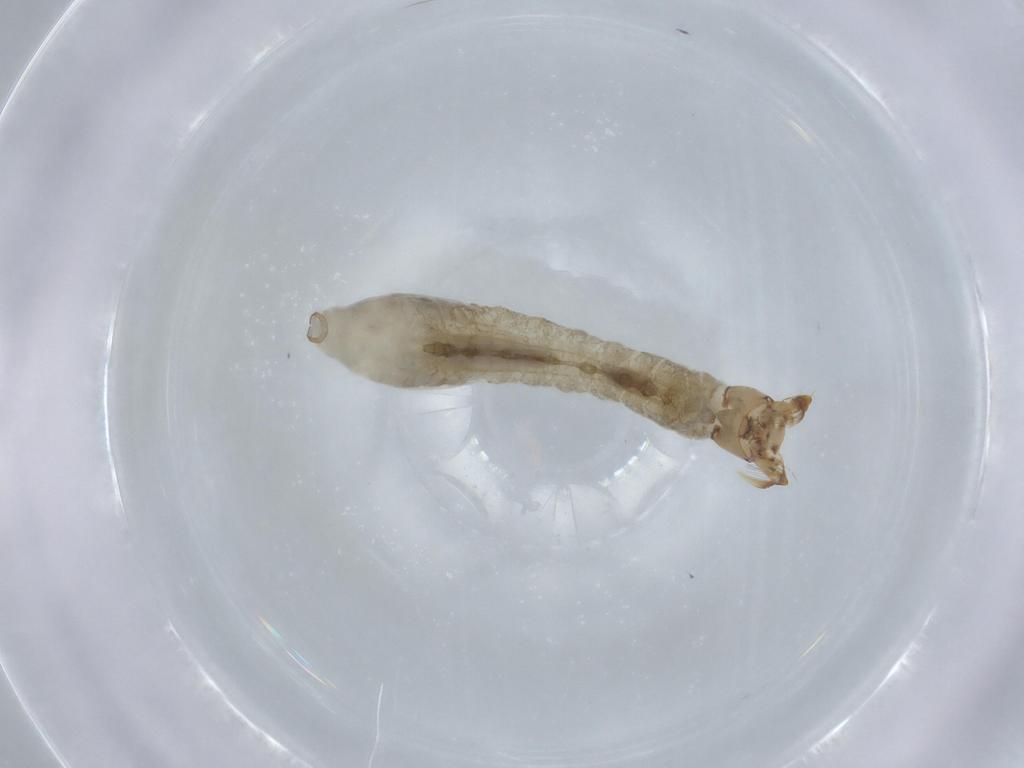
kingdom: Animalia
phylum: Arthropoda
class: Insecta
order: Diptera
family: Simuliidae
